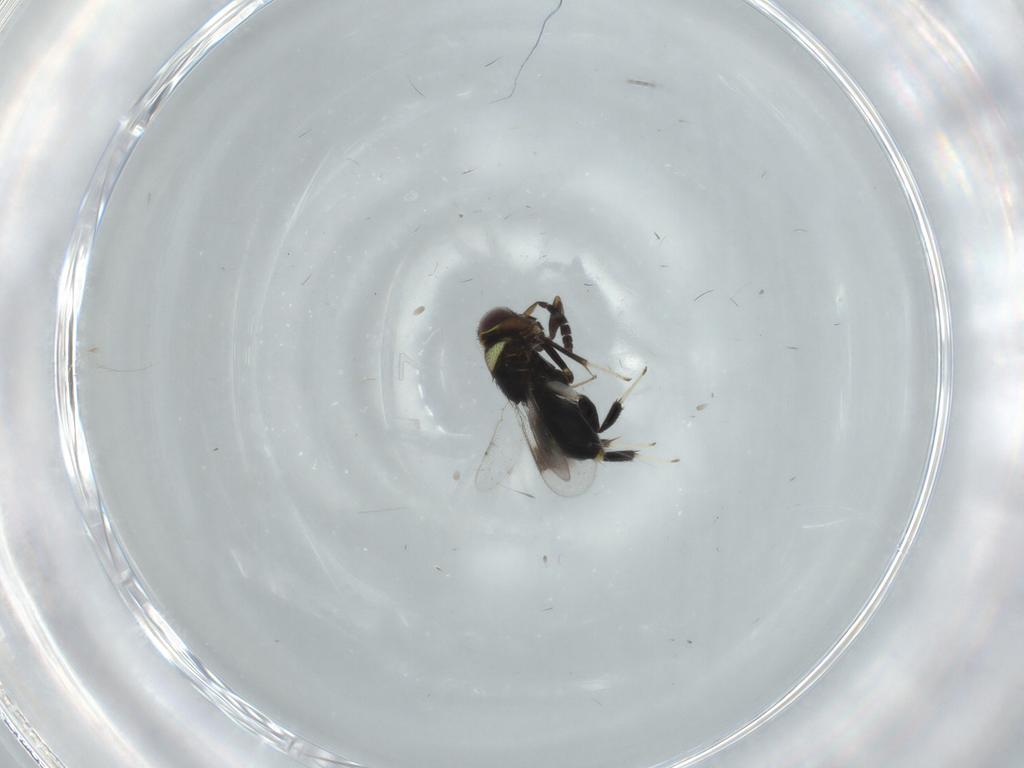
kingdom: Animalia
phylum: Arthropoda
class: Insecta
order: Hymenoptera
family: Aphelinidae
